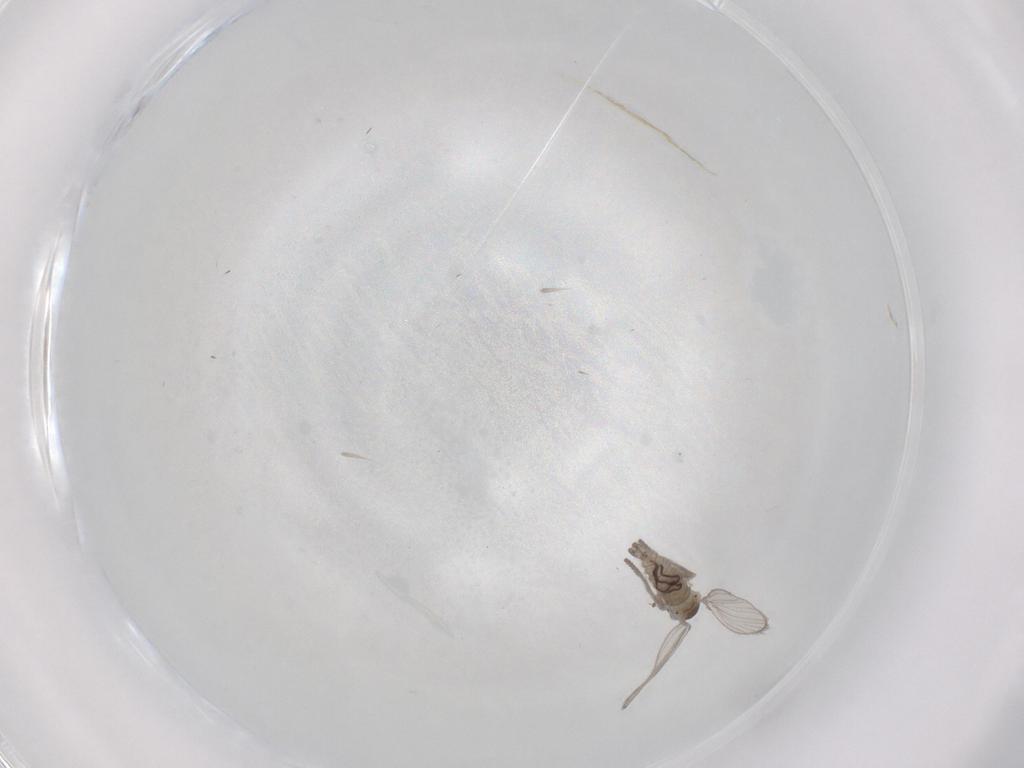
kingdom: Animalia
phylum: Arthropoda
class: Insecta
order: Diptera
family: Psychodidae
